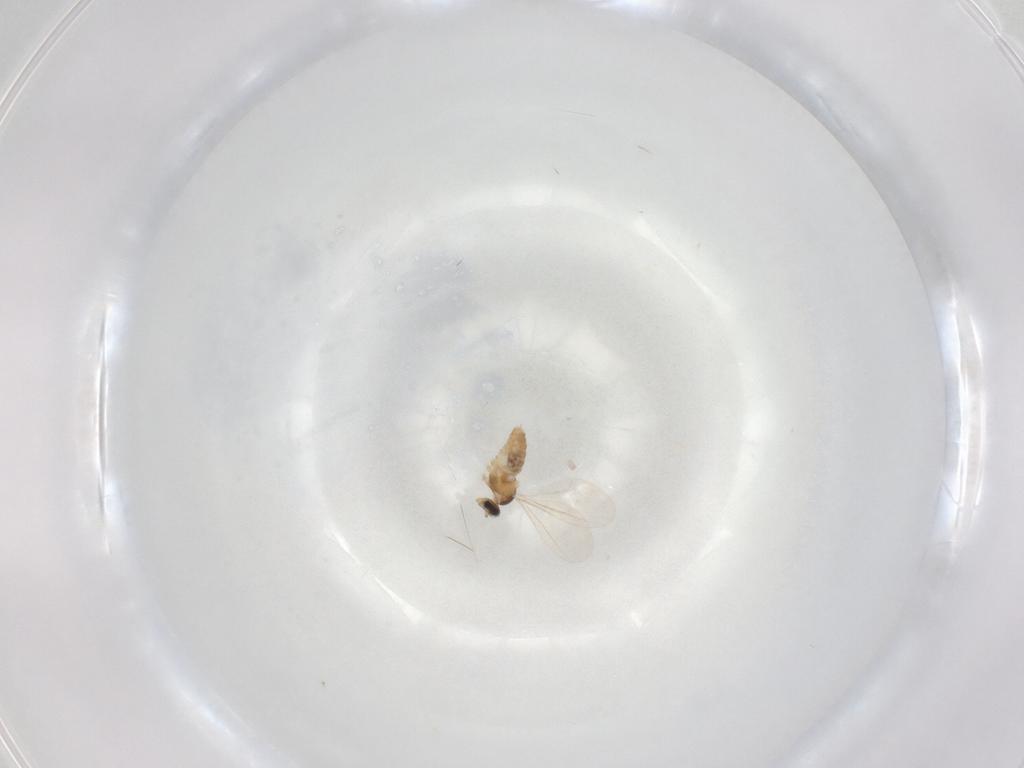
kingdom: Animalia
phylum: Arthropoda
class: Insecta
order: Diptera
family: Cecidomyiidae
